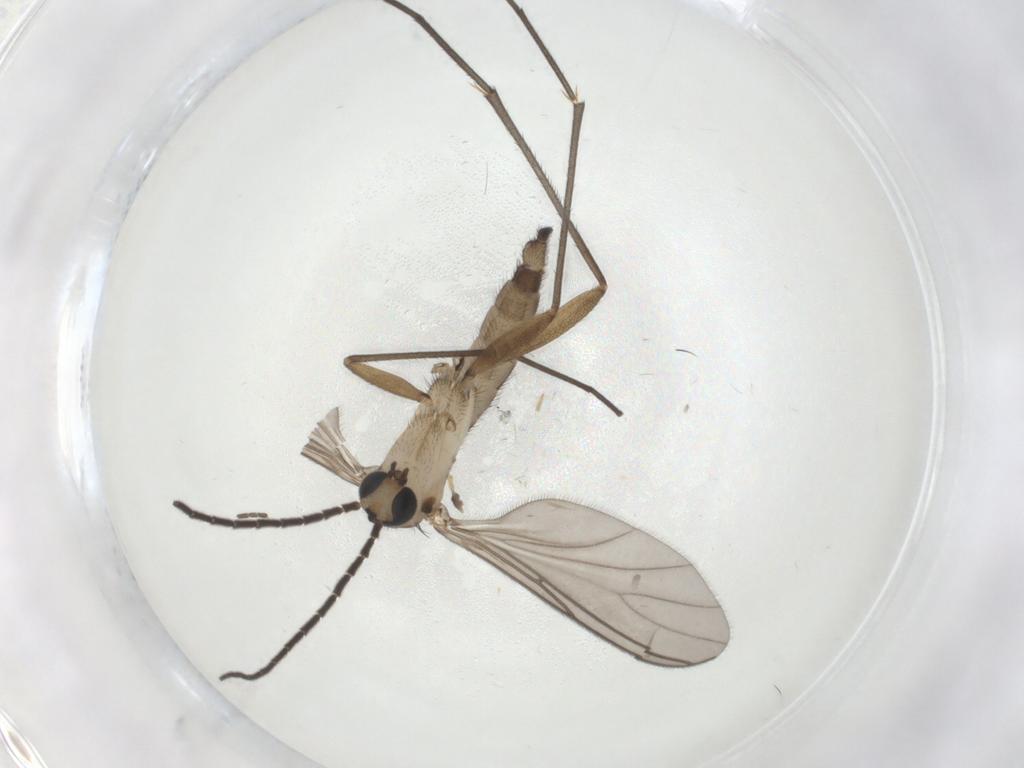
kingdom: Animalia
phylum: Arthropoda
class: Insecta
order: Diptera
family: Sciaridae
